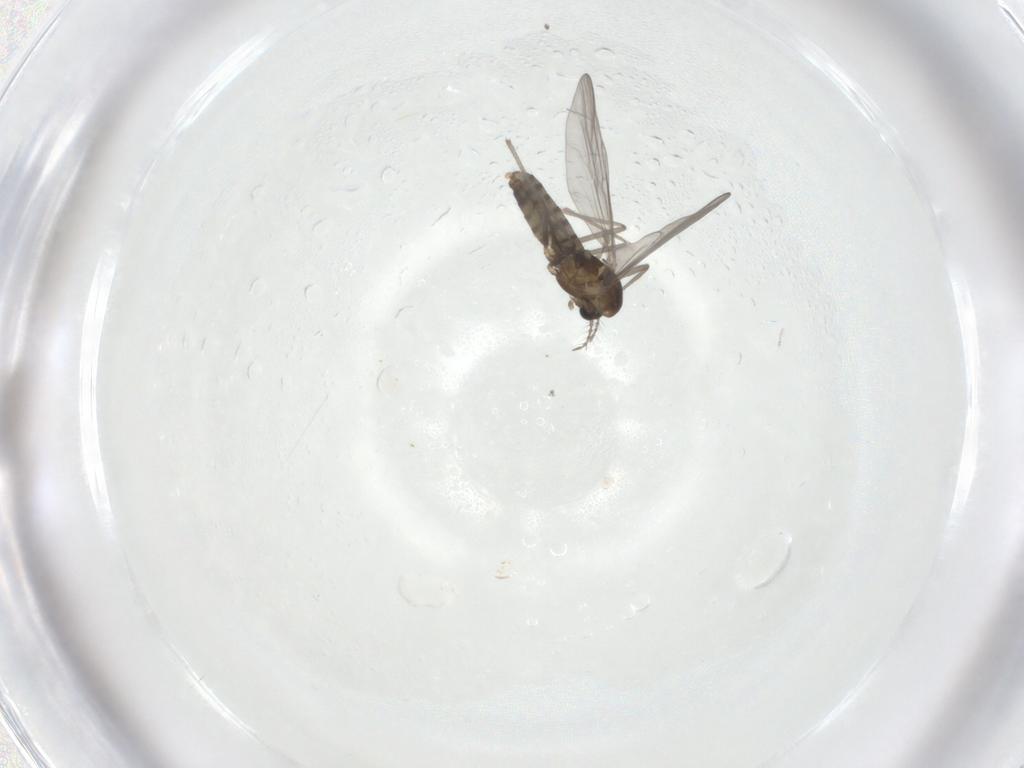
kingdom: Animalia
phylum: Arthropoda
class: Insecta
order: Diptera
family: Chironomidae
